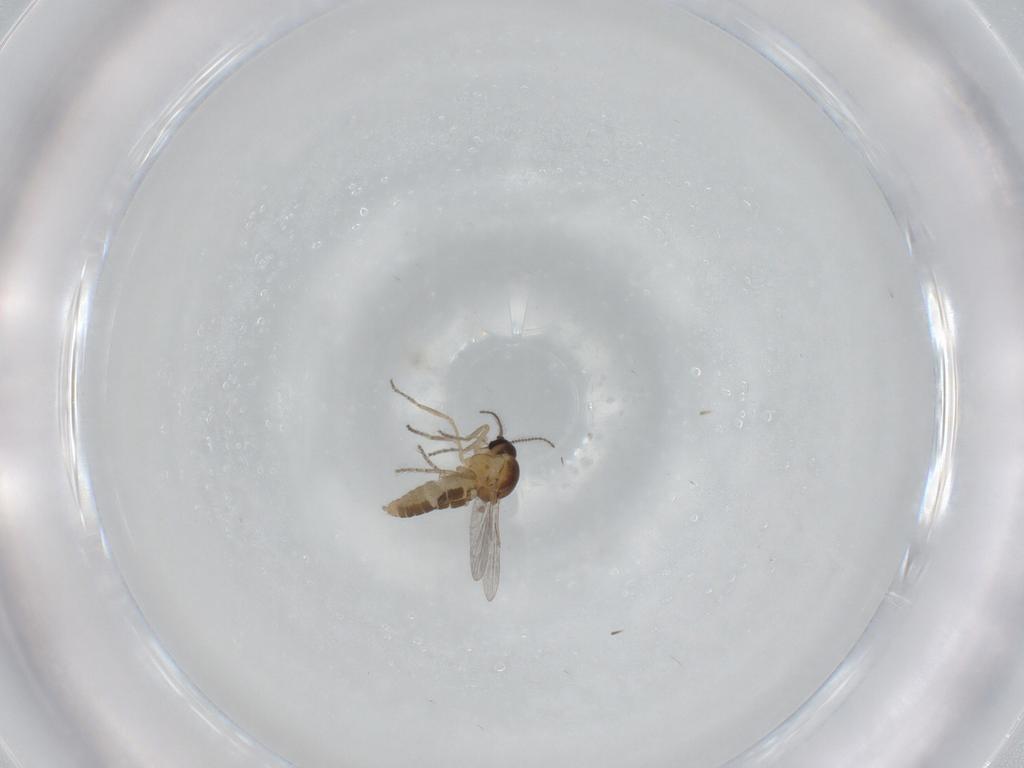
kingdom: Animalia
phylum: Arthropoda
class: Insecta
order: Diptera
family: Ceratopogonidae
